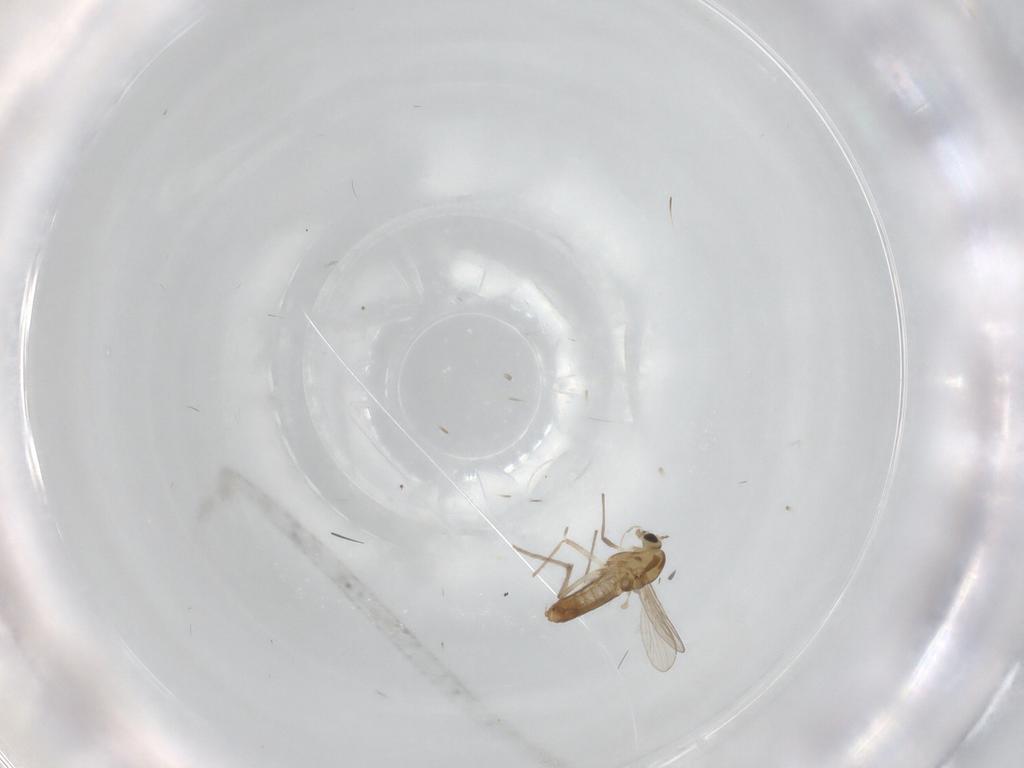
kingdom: Animalia
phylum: Arthropoda
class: Insecta
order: Diptera
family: Chironomidae
